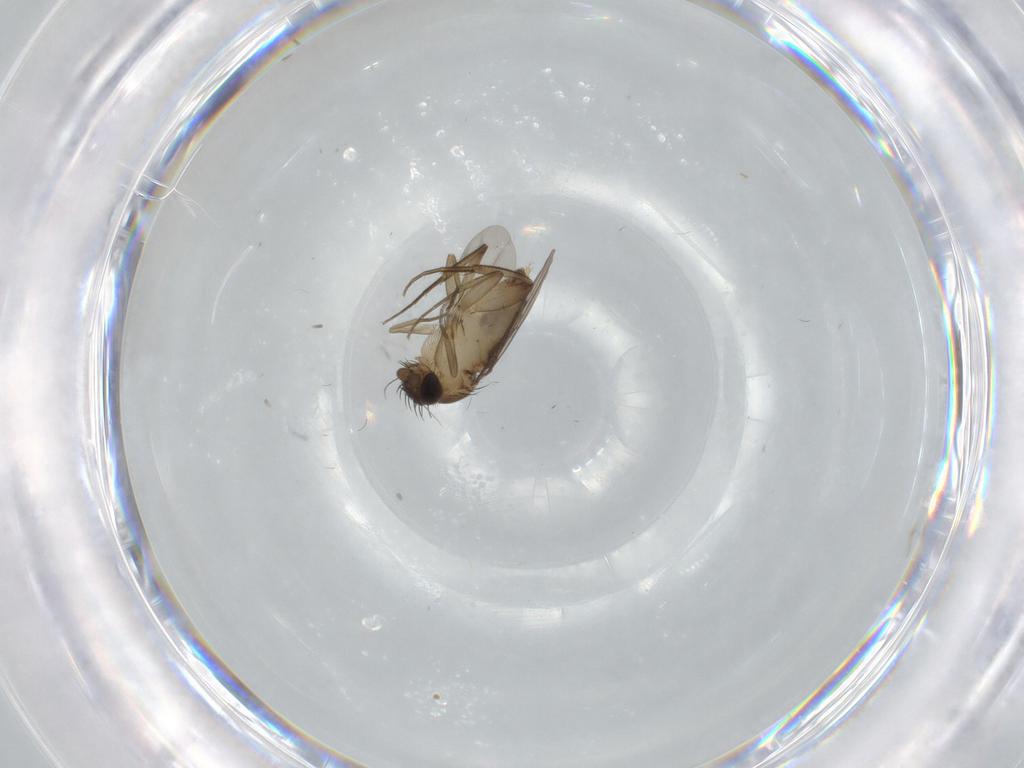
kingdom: Animalia
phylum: Arthropoda
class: Insecta
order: Diptera
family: Phoridae
